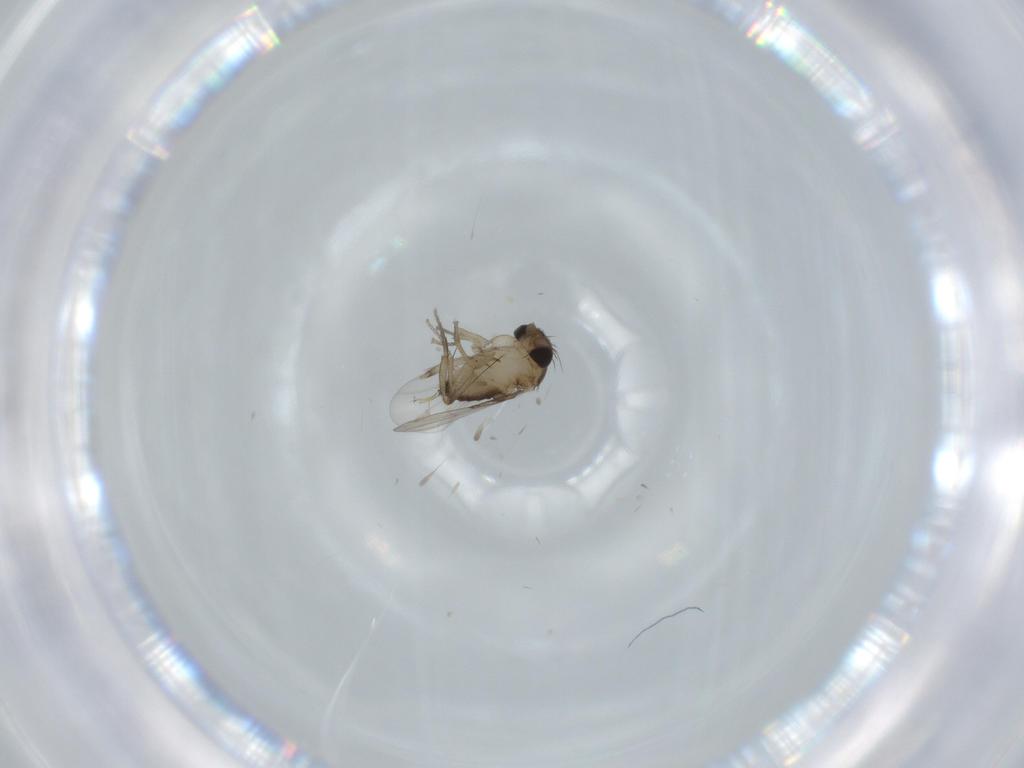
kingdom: Animalia
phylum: Arthropoda
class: Insecta
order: Diptera
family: Phoridae
